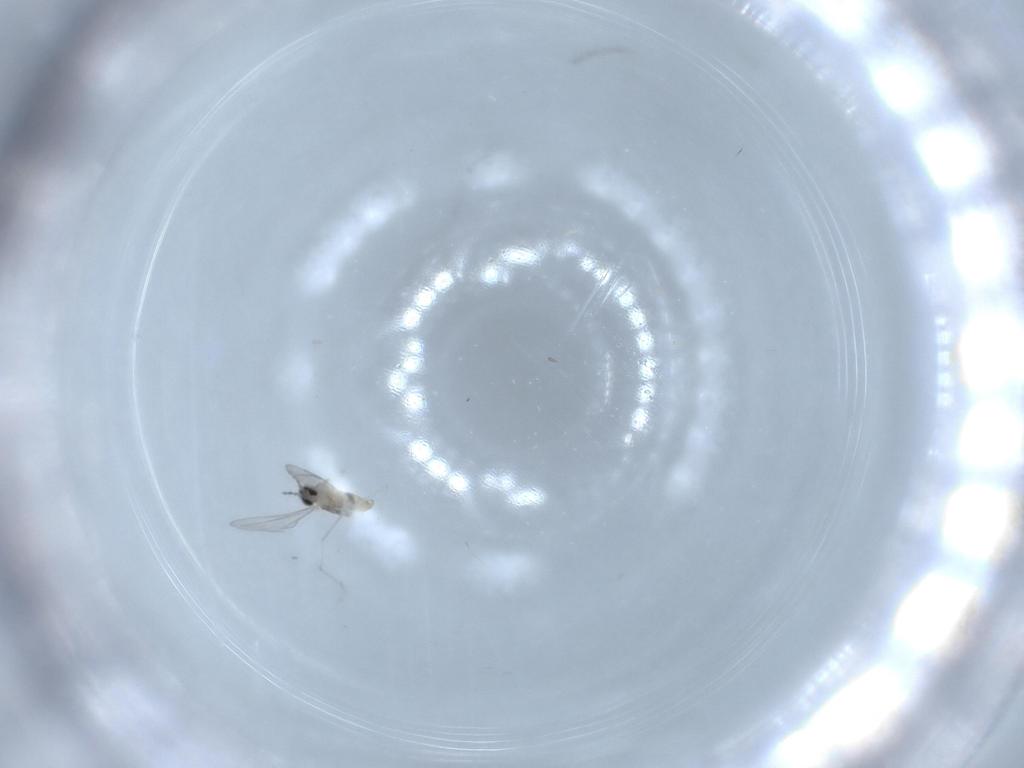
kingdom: Animalia
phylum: Arthropoda
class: Insecta
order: Diptera
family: Cecidomyiidae
